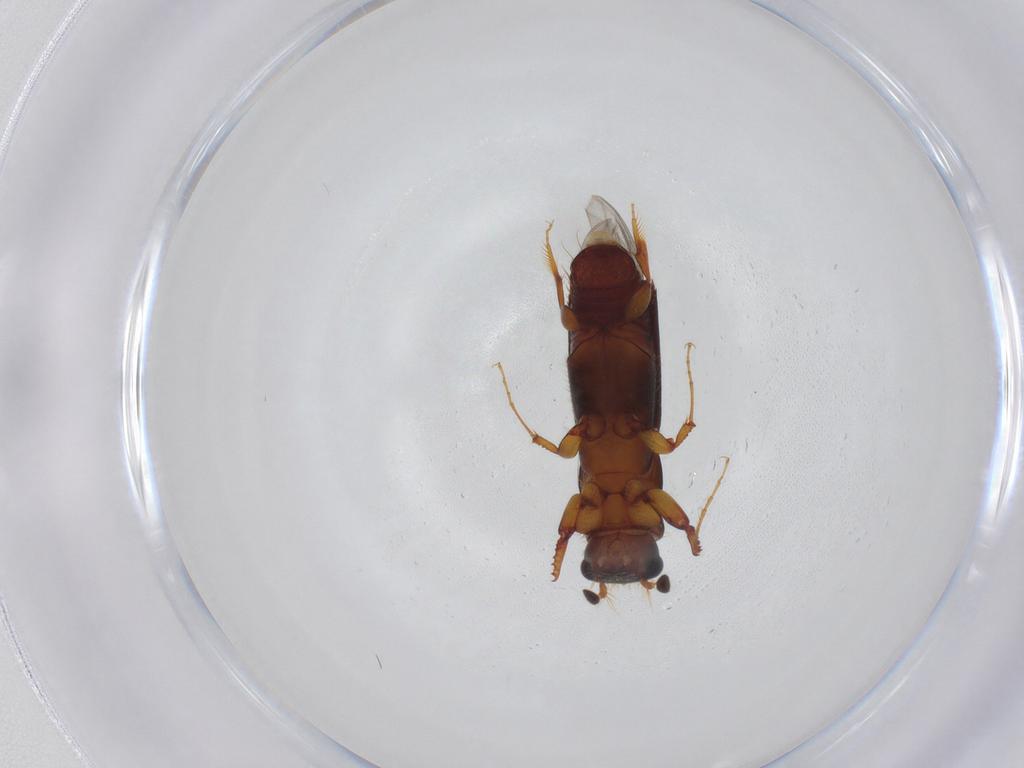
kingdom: Animalia
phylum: Arthropoda
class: Insecta
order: Coleoptera
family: Curculionidae
